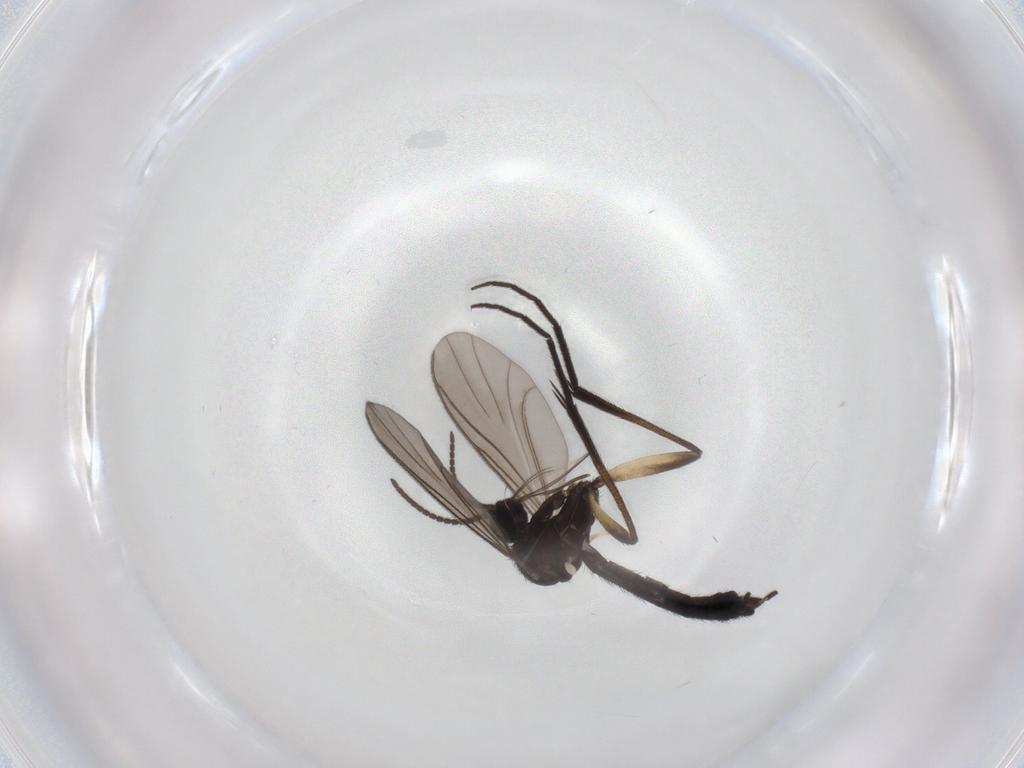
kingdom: Animalia
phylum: Arthropoda
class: Insecta
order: Diptera
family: Keroplatidae
